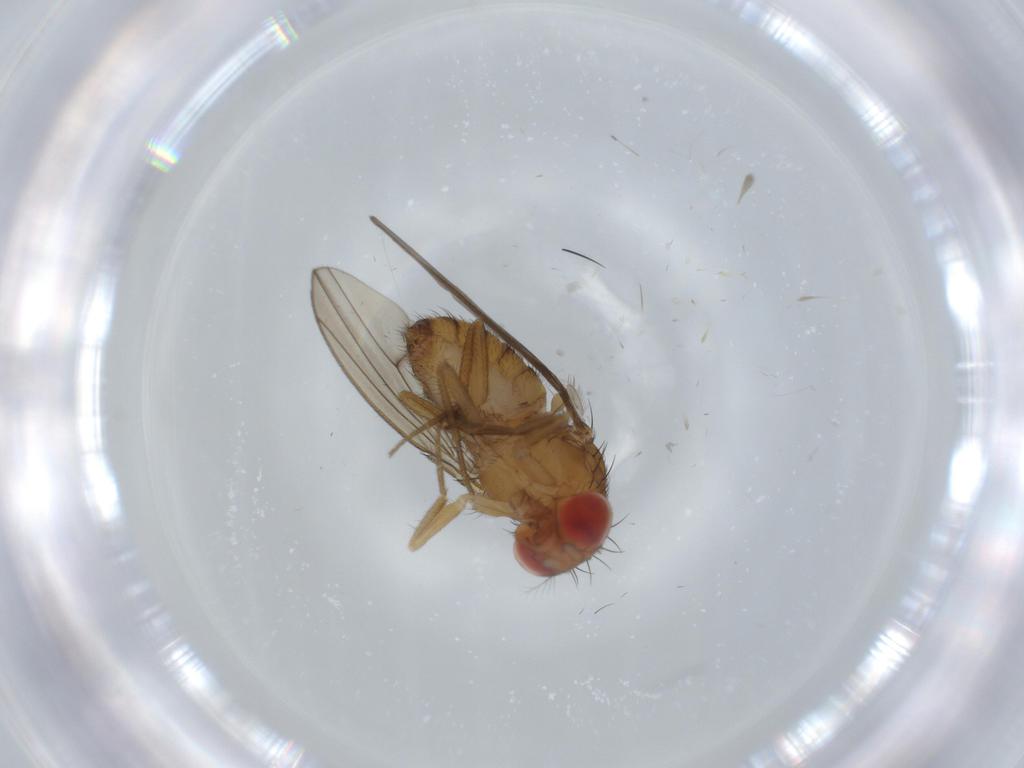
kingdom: Animalia
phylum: Arthropoda
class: Insecta
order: Diptera
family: Drosophilidae
